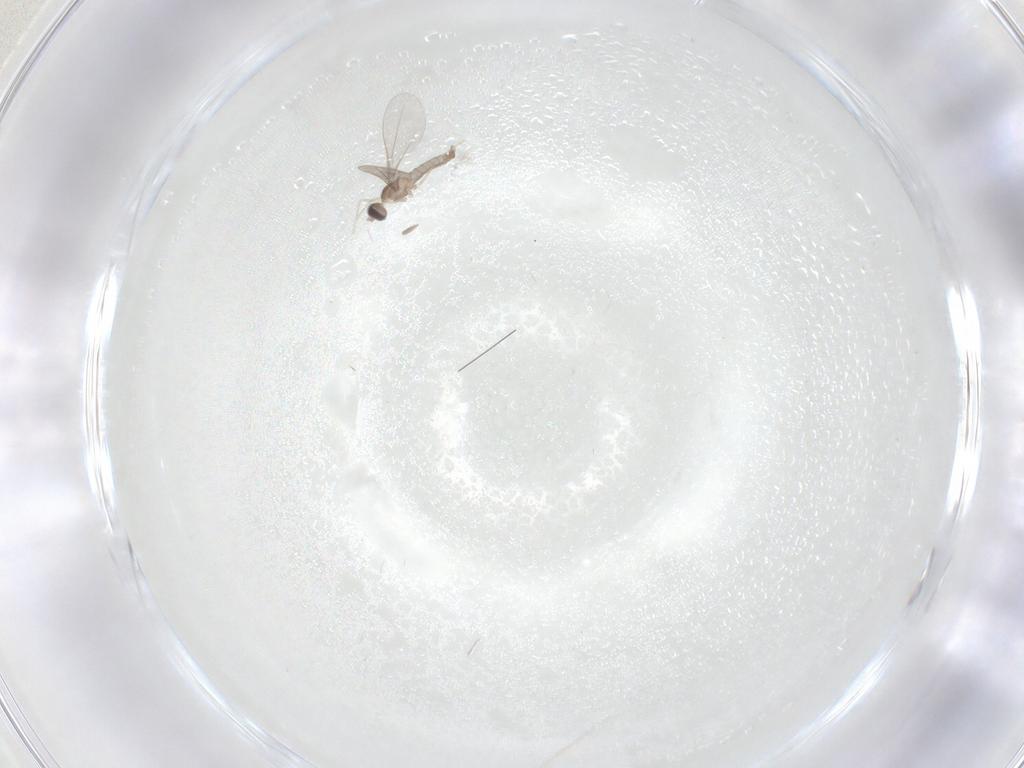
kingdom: Animalia
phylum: Arthropoda
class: Insecta
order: Diptera
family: Cecidomyiidae
